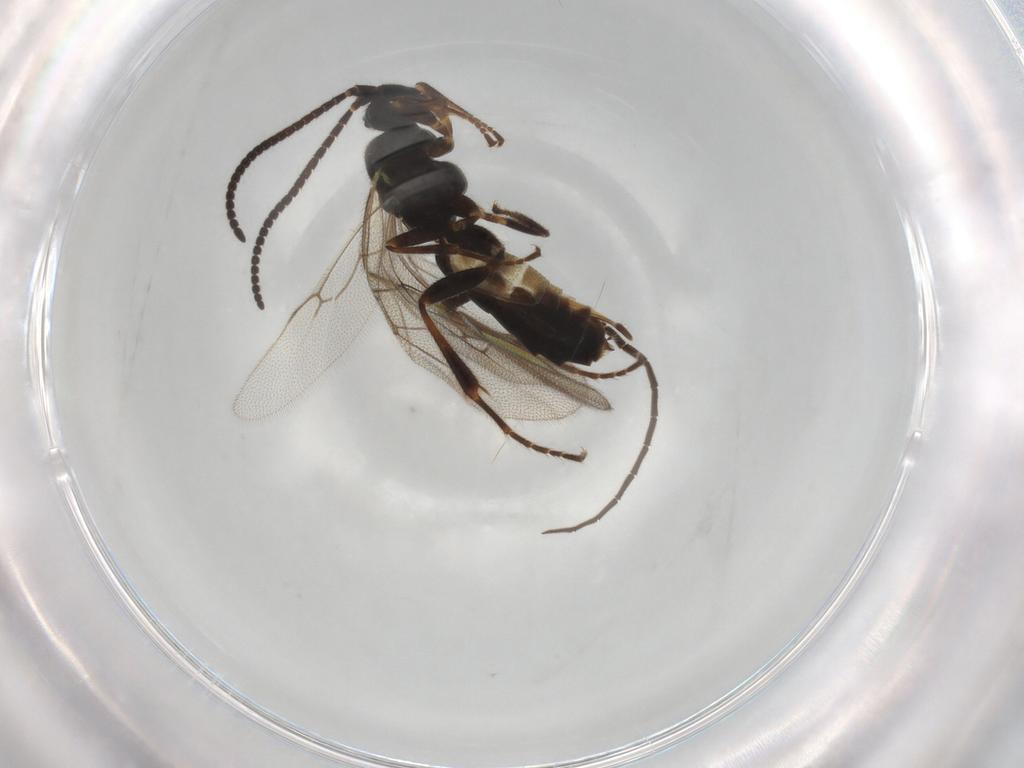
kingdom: Animalia
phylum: Arthropoda
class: Insecta
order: Hymenoptera
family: Ichneumonidae
